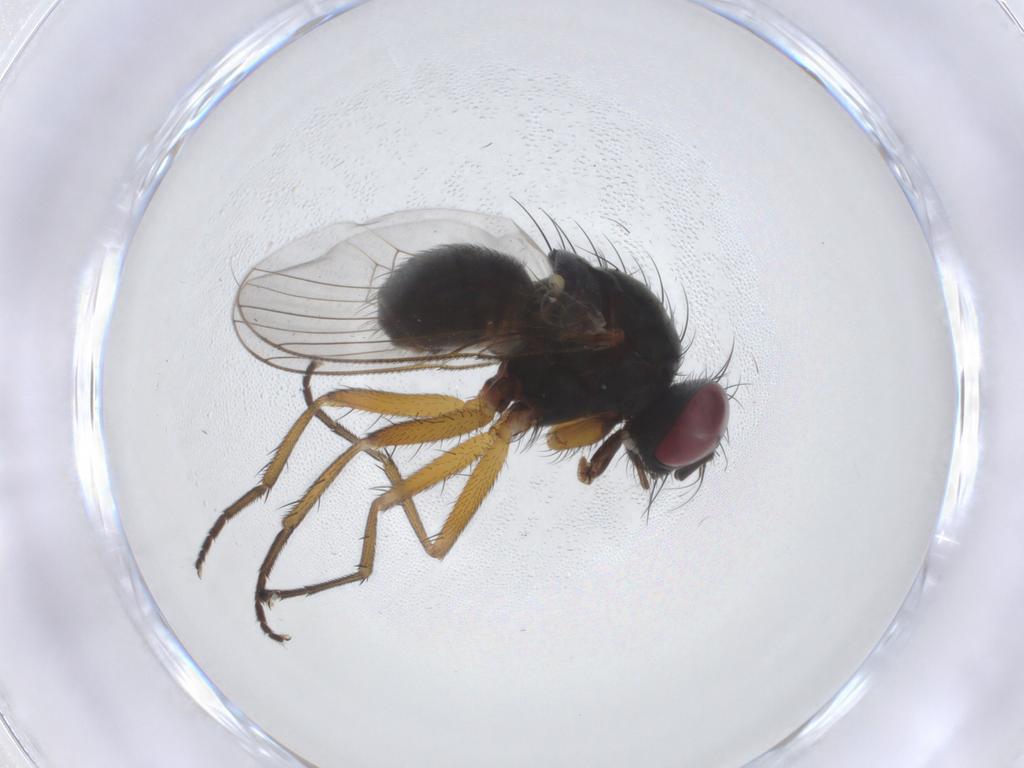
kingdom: Animalia
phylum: Arthropoda
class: Insecta
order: Diptera
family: Muscidae
